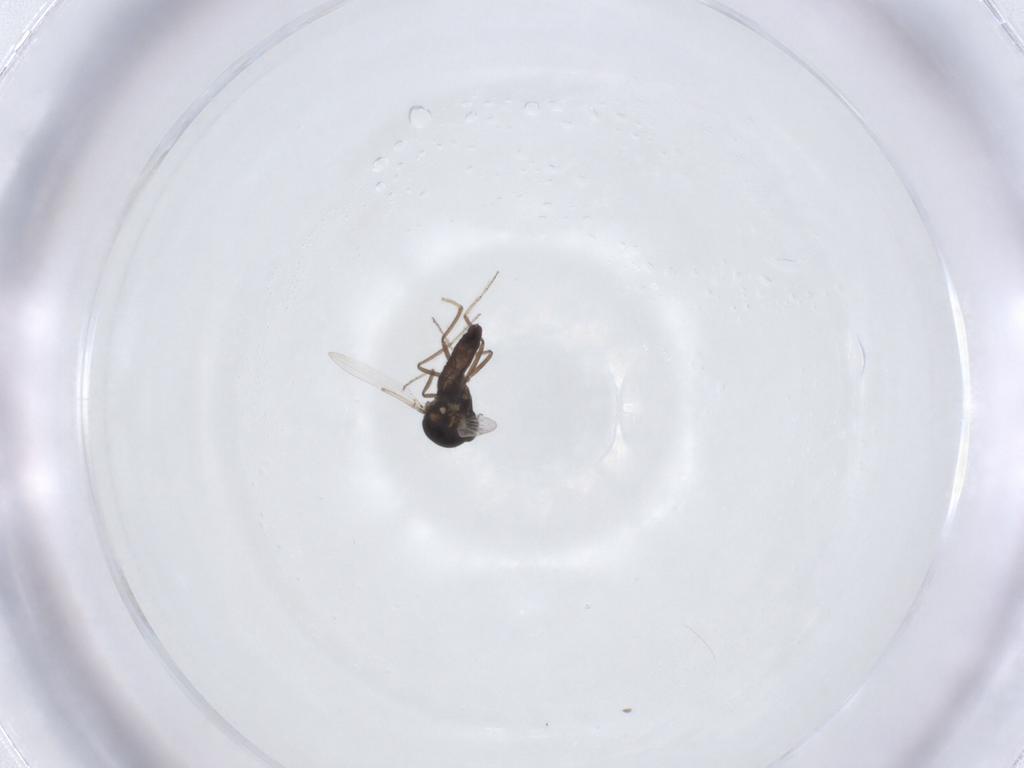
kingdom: Animalia
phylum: Arthropoda
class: Insecta
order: Diptera
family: Ceratopogonidae
